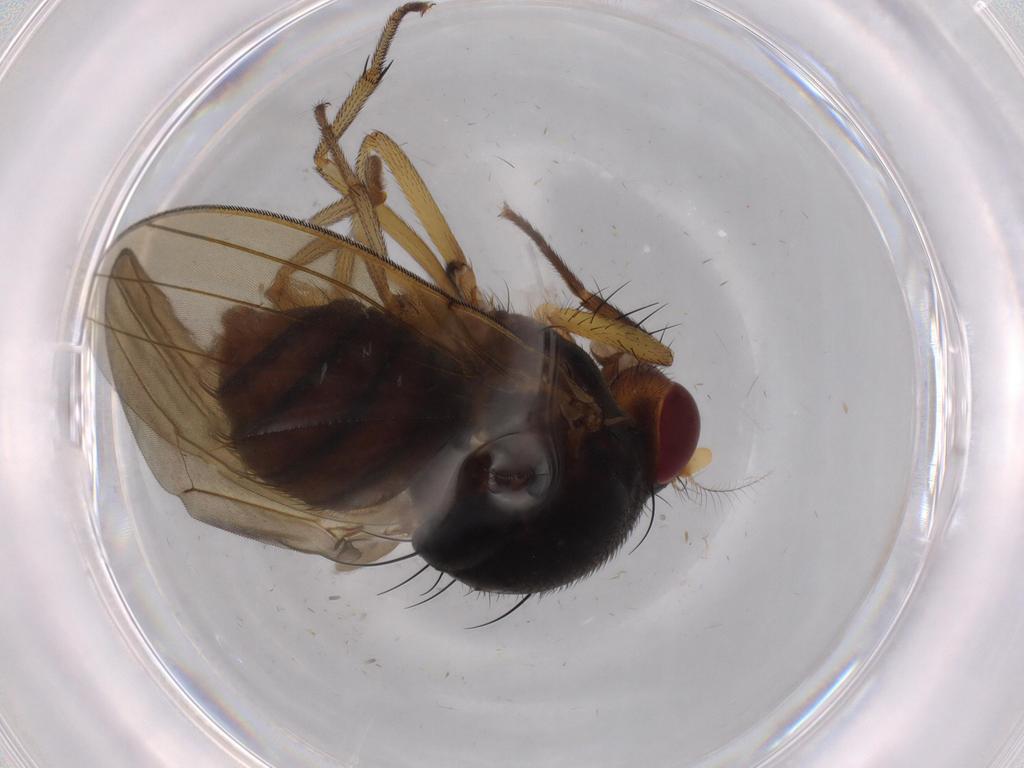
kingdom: Animalia
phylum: Arthropoda
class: Insecta
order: Diptera
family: Cecidomyiidae
